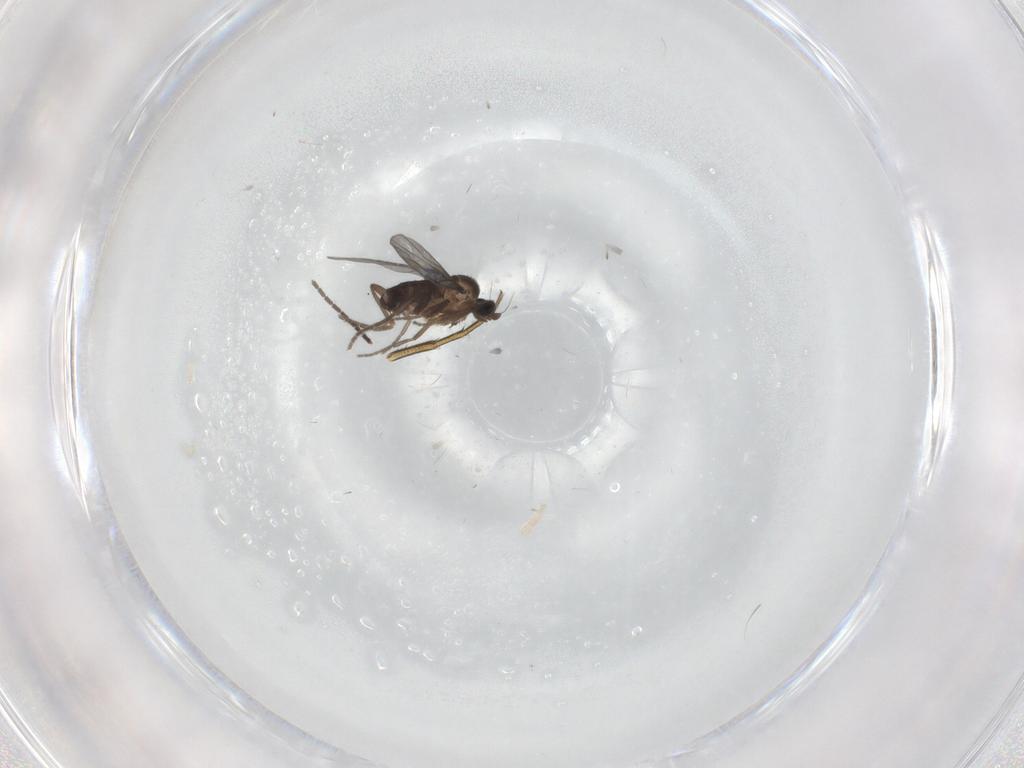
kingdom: Animalia
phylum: Arthropoda
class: Insecta
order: Diptera
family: Phoridae
